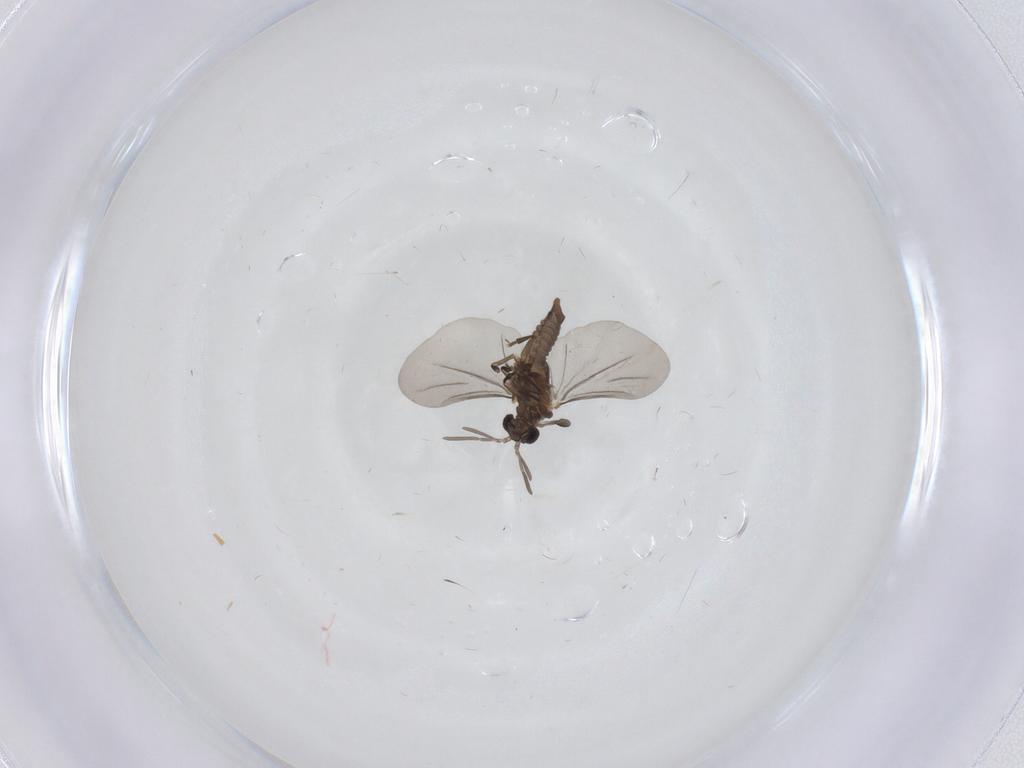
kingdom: Animalia
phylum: Arthropoda
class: Insecta
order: Strepsiptera
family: Elenchidae
